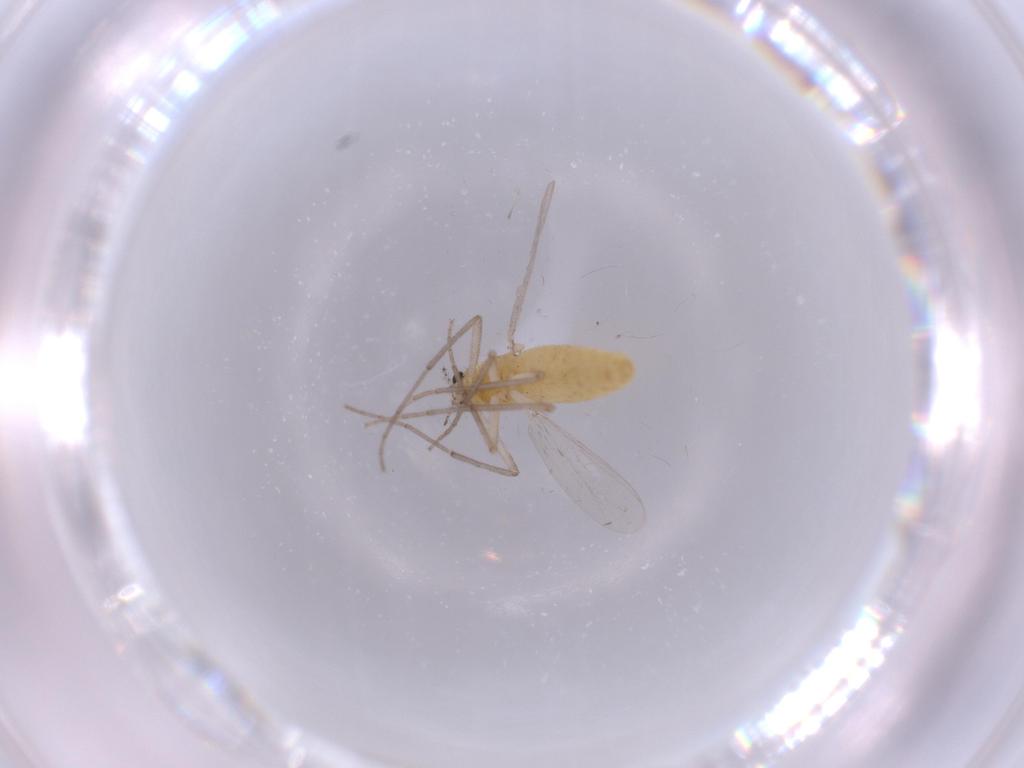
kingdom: Animalia
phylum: Arthropoda
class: Insecta
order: Diptera
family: Chironomidae
